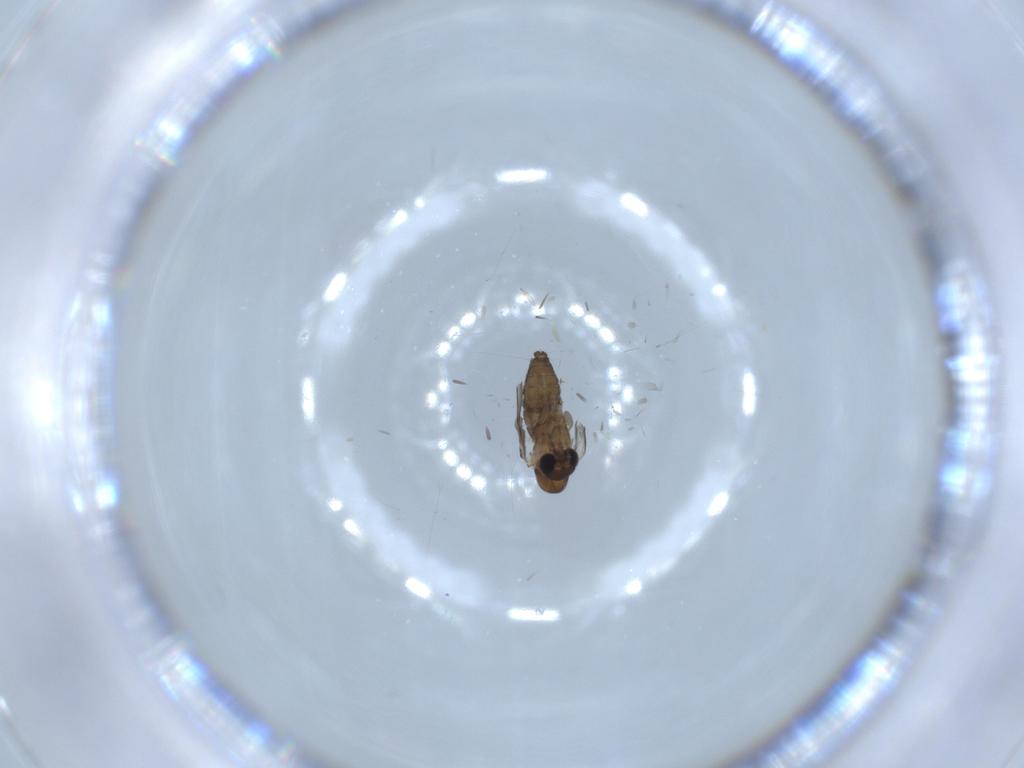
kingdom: Animalia
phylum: Arthropoda
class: Insecta
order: Diptera
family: Psychodidae
